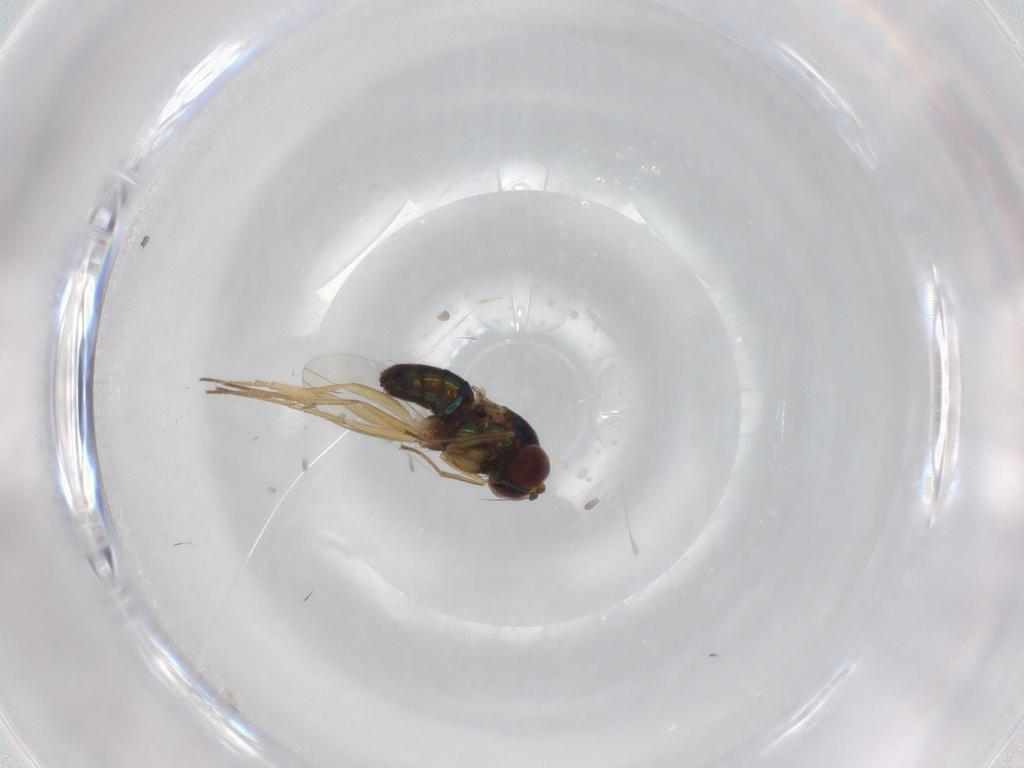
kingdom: Animalia
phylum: Arthropoda
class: Insecta
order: Diptera
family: Dolichopodidae
